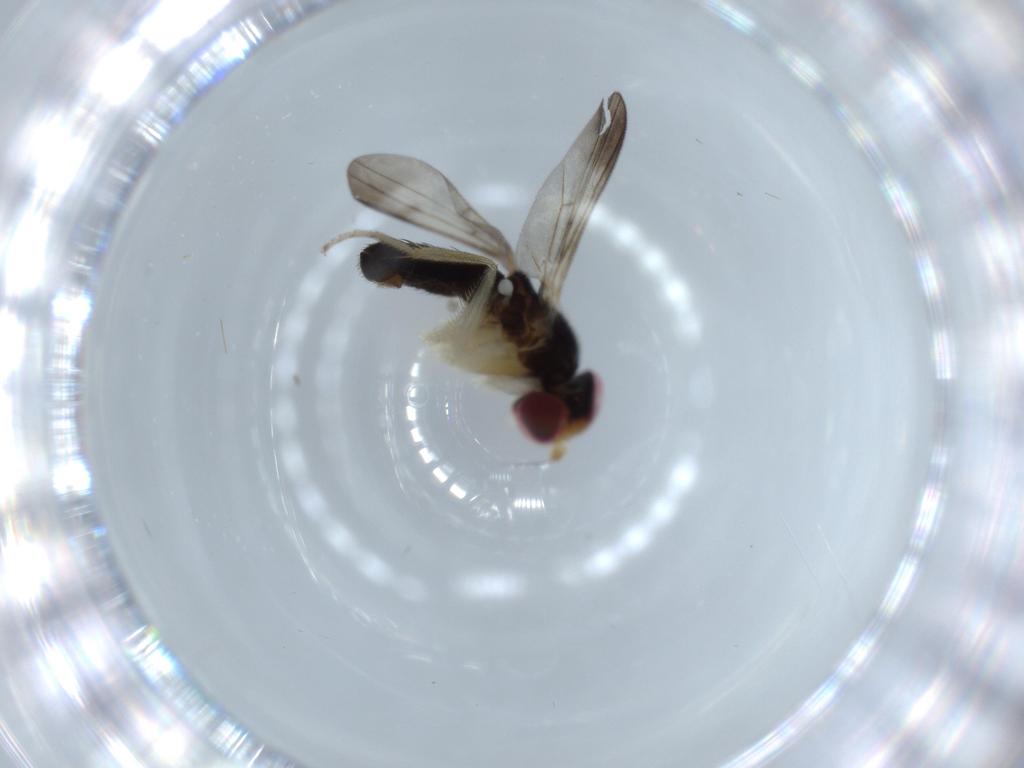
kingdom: Animalia
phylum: Arthropoda
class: Insecta
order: Diptera
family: Clusiidae
